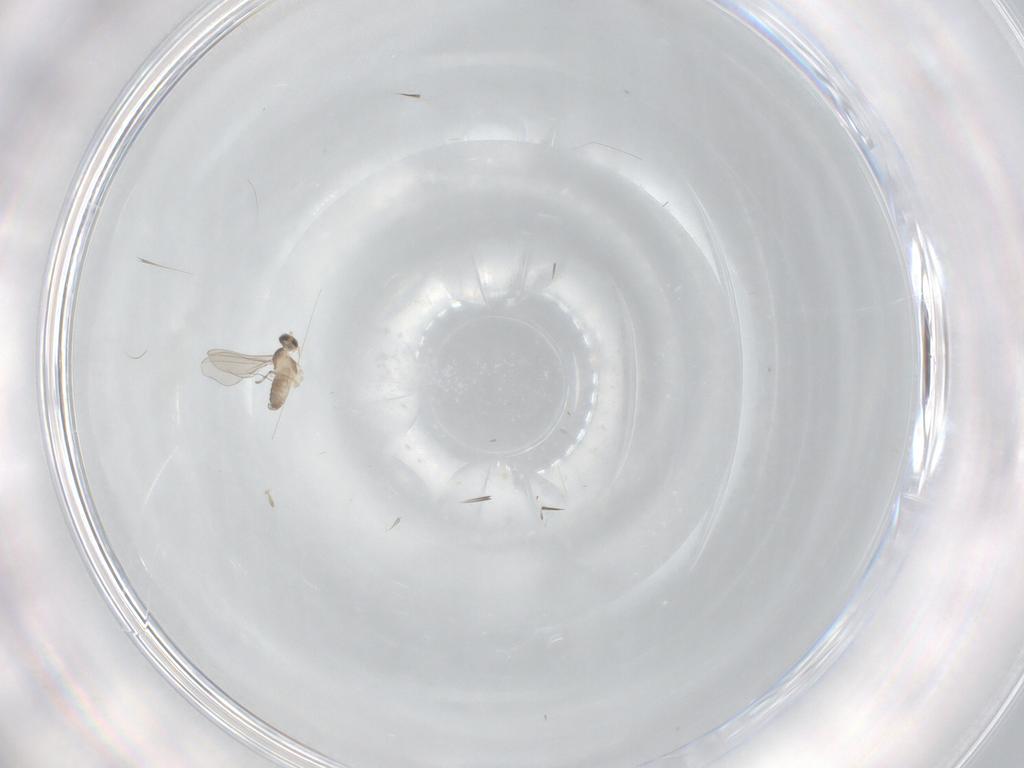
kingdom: Animalia
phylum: Arthropoda
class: Insecta
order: Diptera
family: Cecidomyiidae
